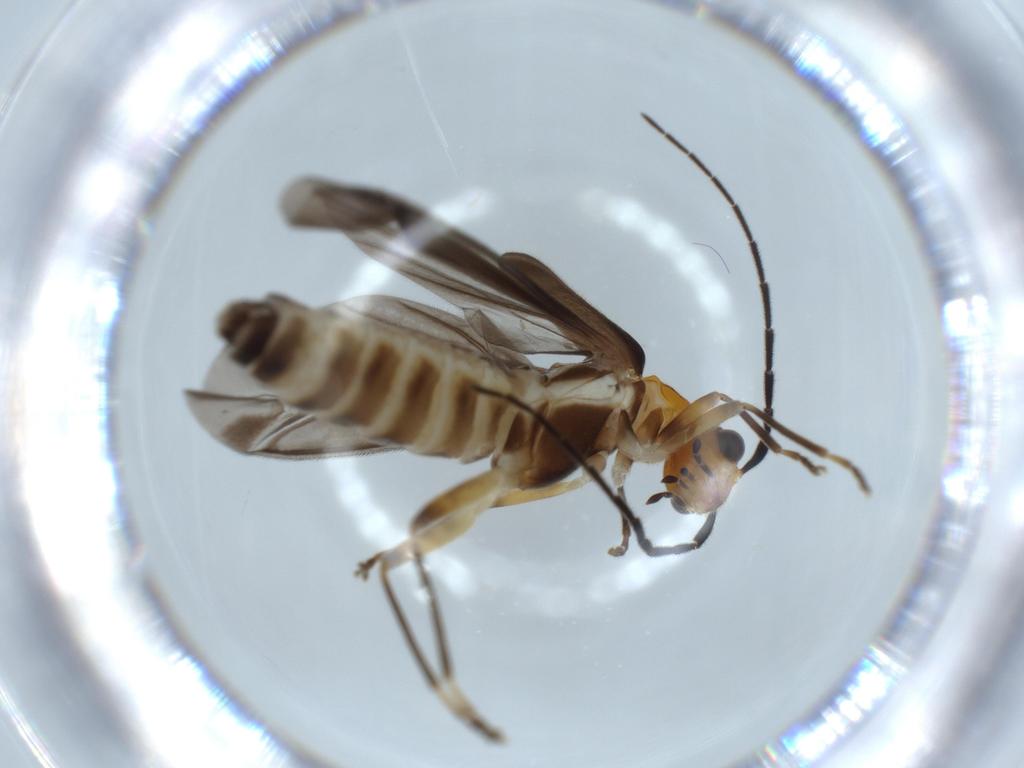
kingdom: Animalia
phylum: Arthropoda
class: Insecta
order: Coleoptera
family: Cantharidae
